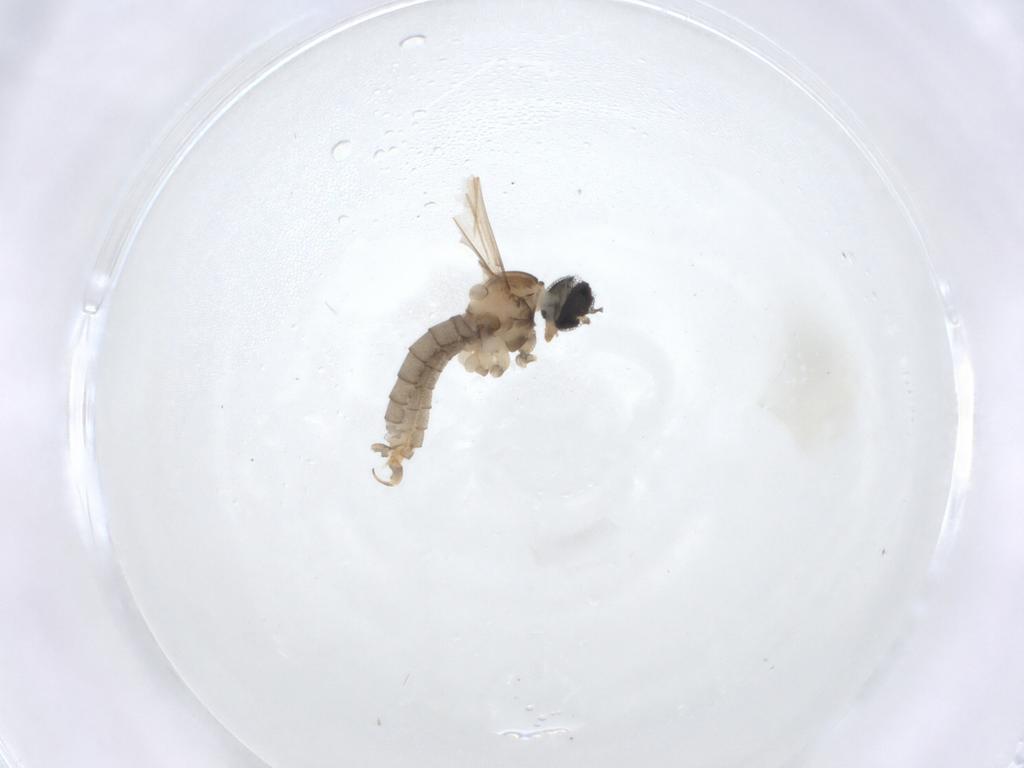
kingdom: Animalia
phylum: Arthropoda
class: Insecta
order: Diptera
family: Cecidomyiidae
